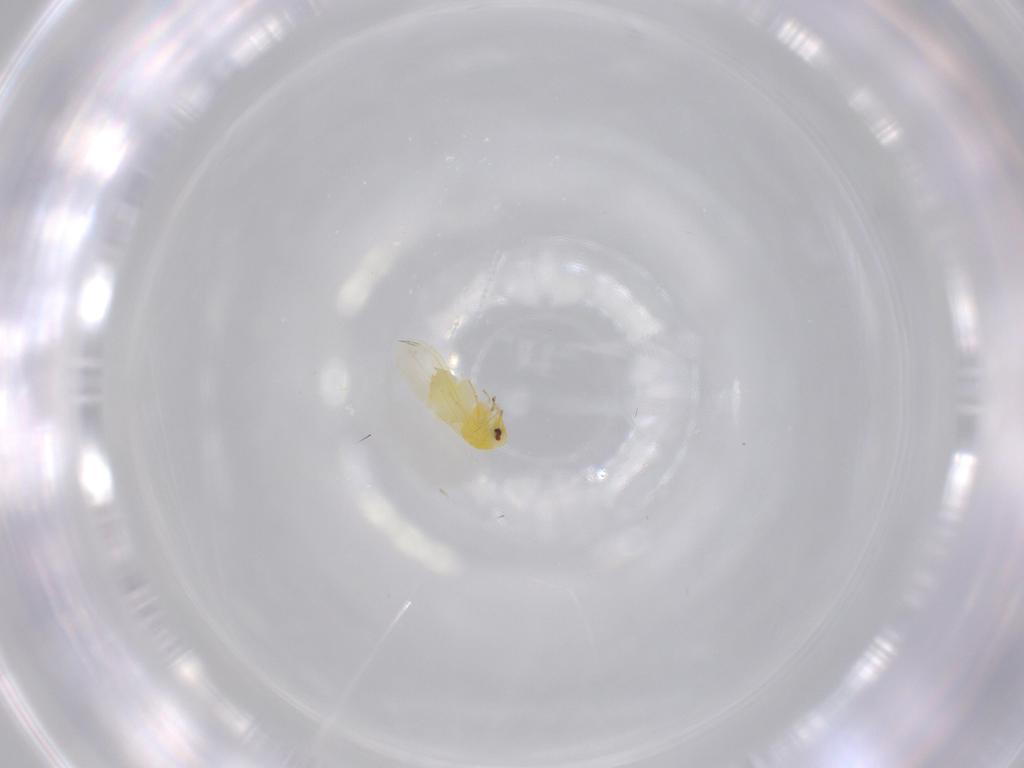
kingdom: Animalia
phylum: Arthropoda
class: Insecta
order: Hemiptera
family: Aleyrodidae
